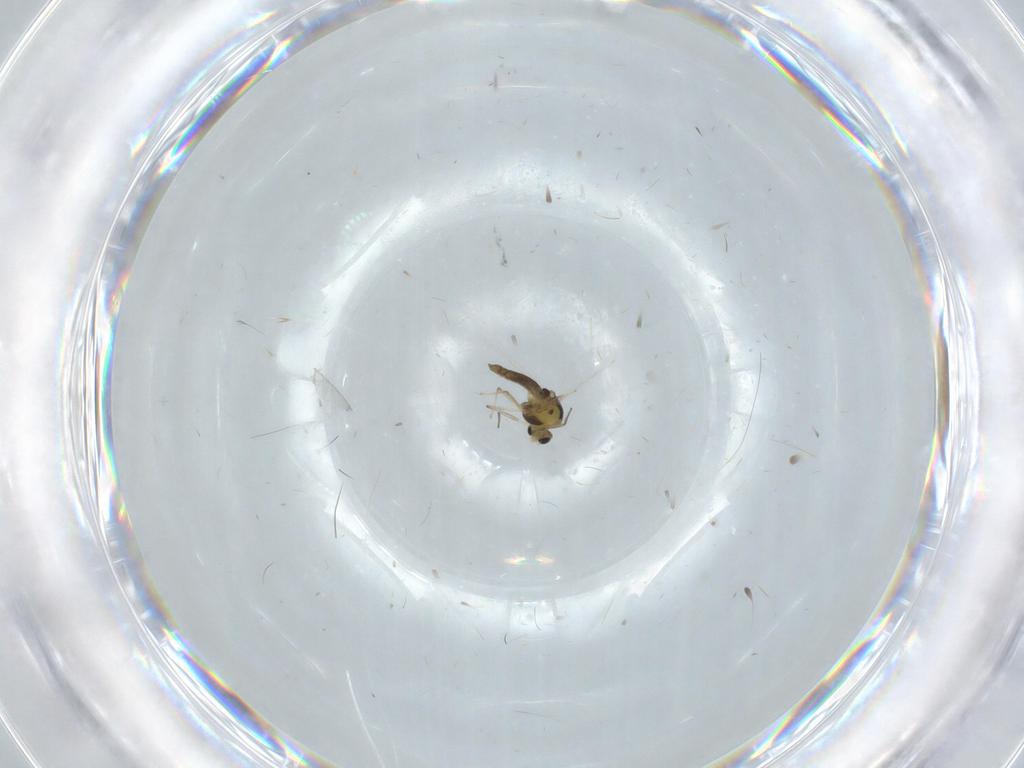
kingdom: Animalia
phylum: Arthropoda
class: Insecta
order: Diptera
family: Chironomidae
